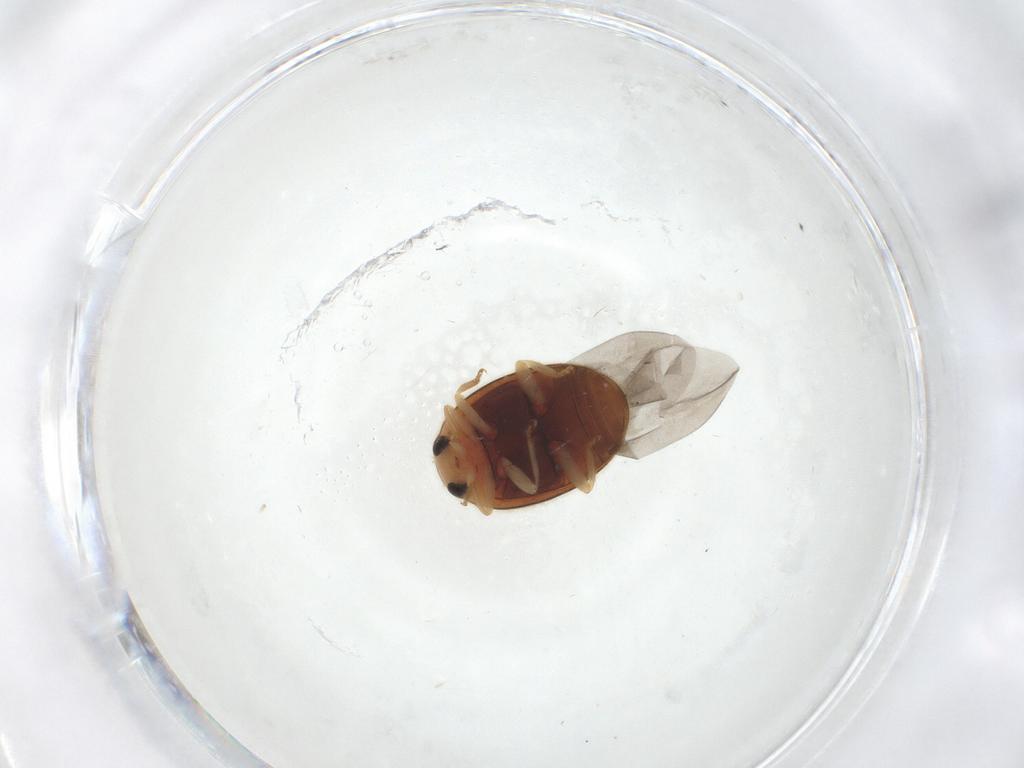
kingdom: Animalia
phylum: Arthropoda
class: Insecta
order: Coleoptera
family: Coccinellidae
